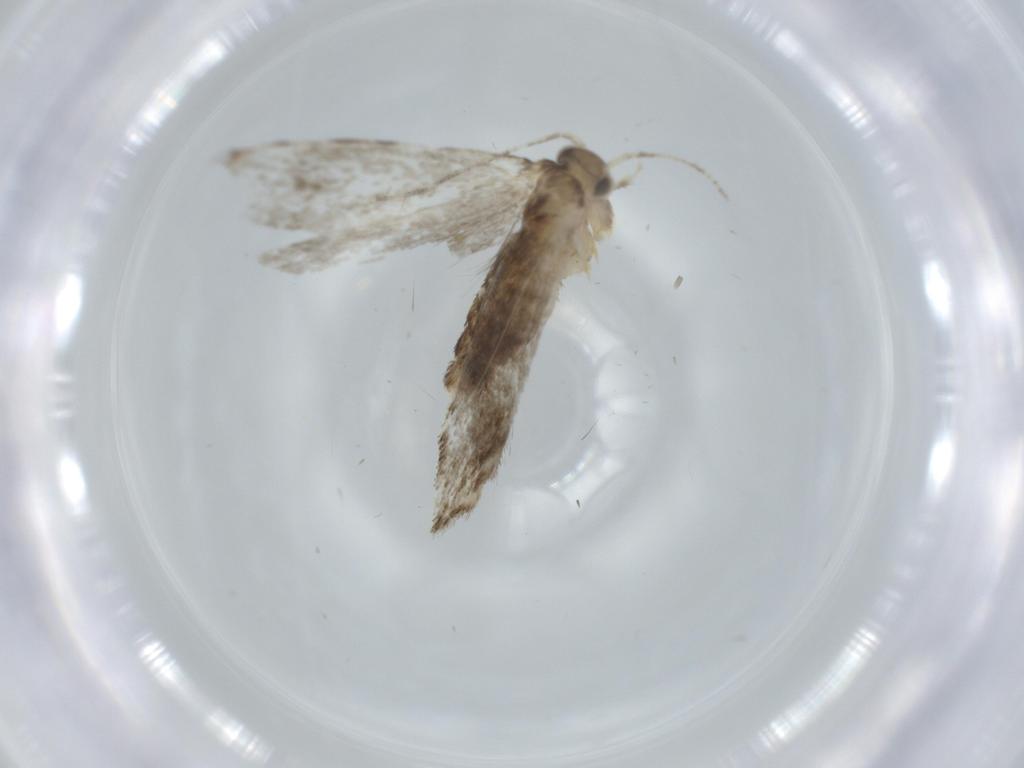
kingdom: Animalia
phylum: Arthropoda
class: Insecta
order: Lepidoptera
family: Tineidae
